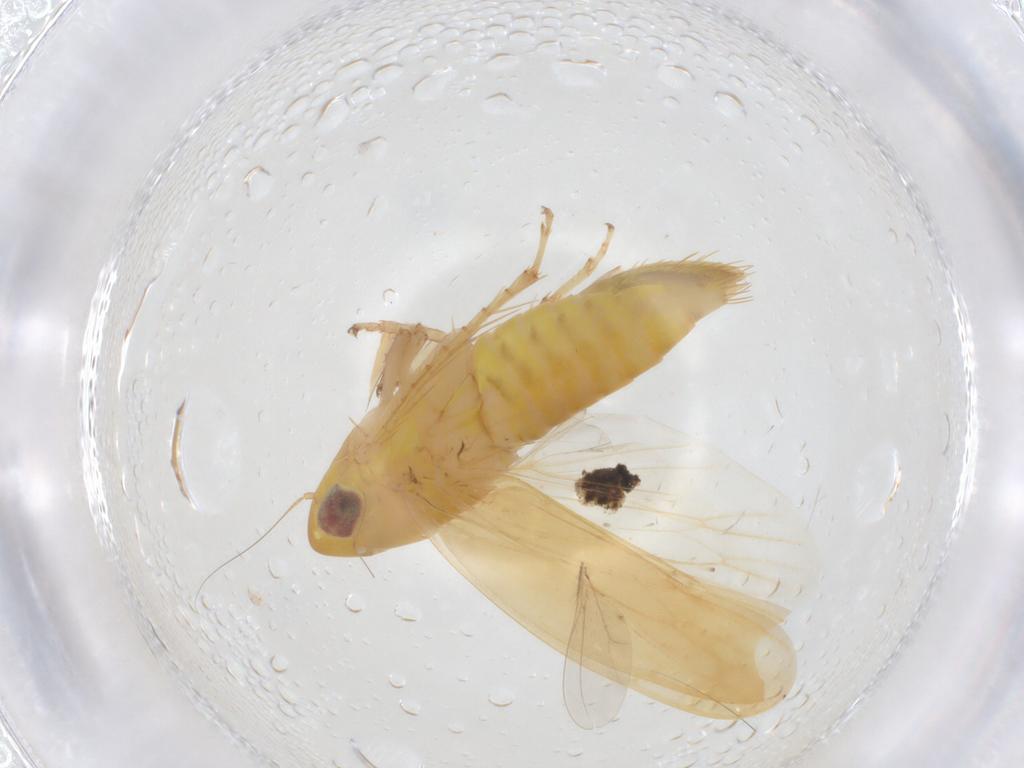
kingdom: Animalia
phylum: Arthropoda
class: Insecta
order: Hemiptera
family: Cicadellidae
